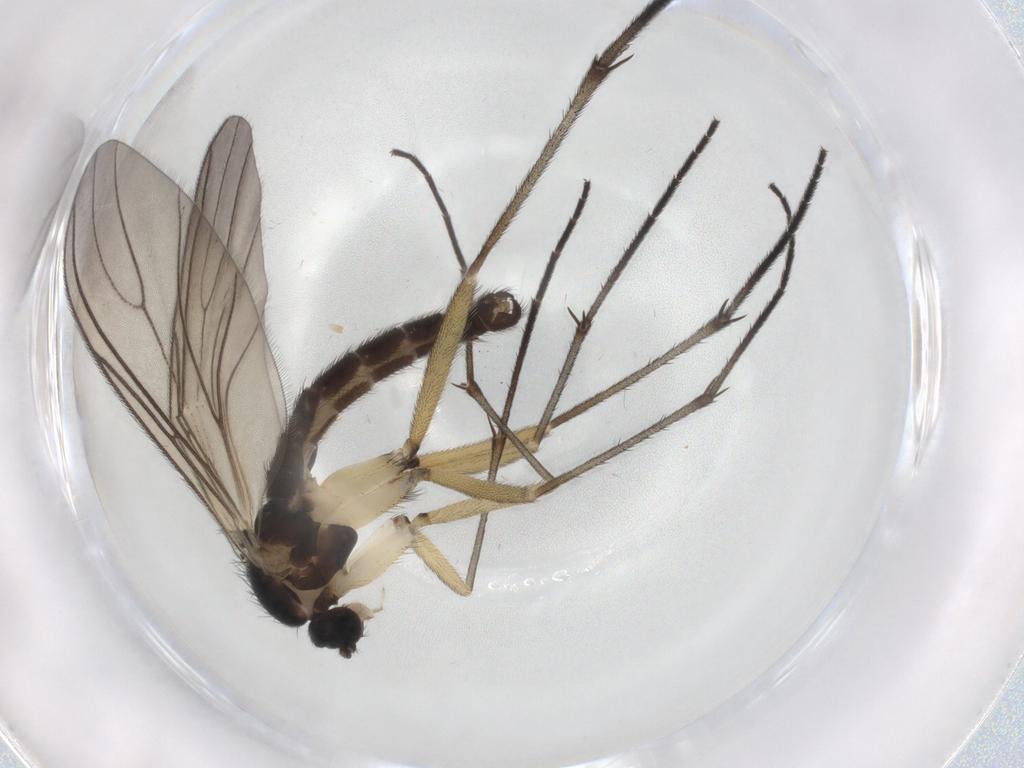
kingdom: Animalia
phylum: Arthropoda
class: Insecta
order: Diptera
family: Sciaridae
